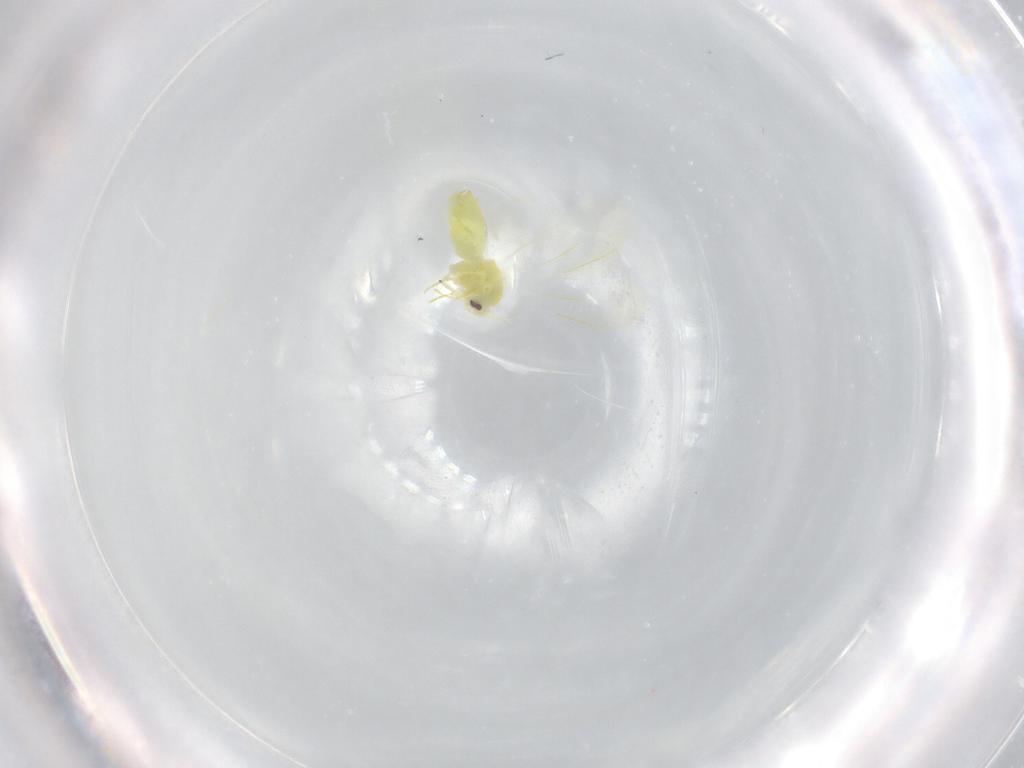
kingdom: Animalia
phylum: Arthropoda
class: Insecta
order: Hemiptera
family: Aleyrodidae
